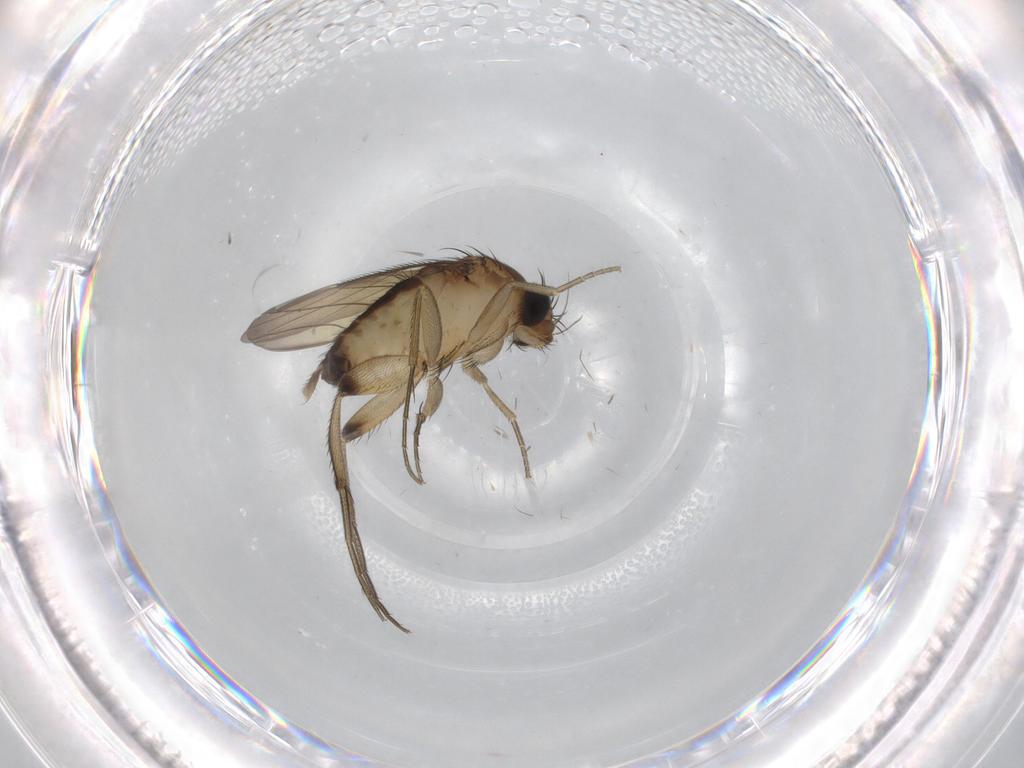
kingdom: Animalia
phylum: Arthropoda
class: Insecta
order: Diptera
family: Phoridae
